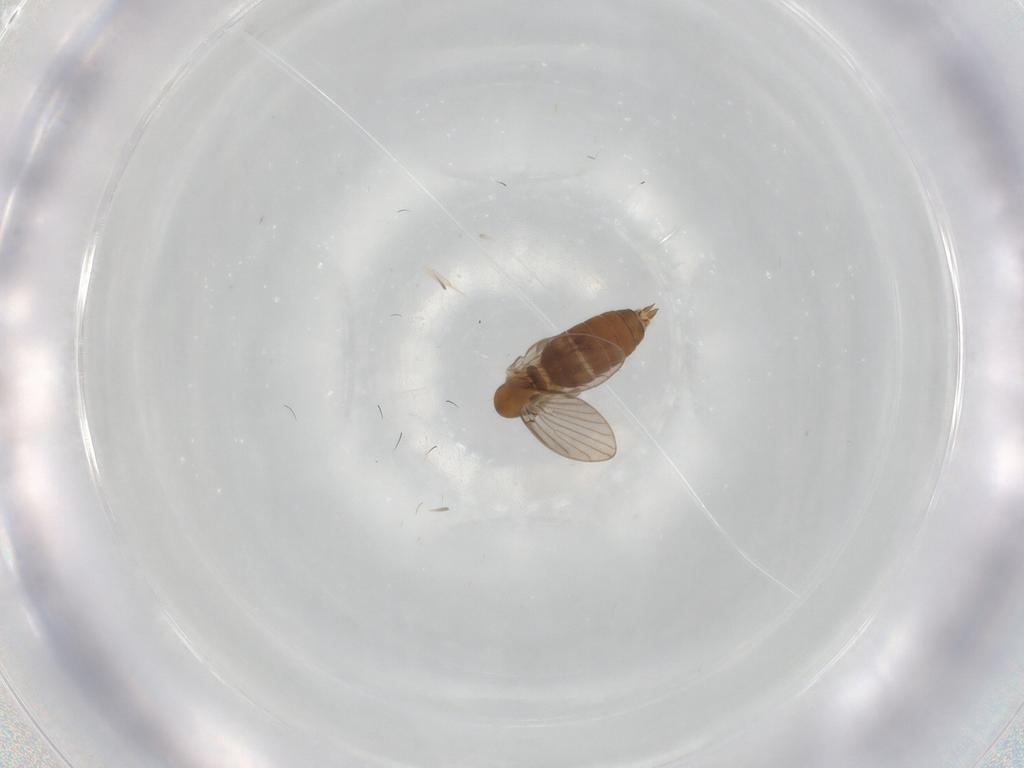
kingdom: Animalia
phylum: Arthropoda
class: Insecta
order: Diptera
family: Psychodidae
